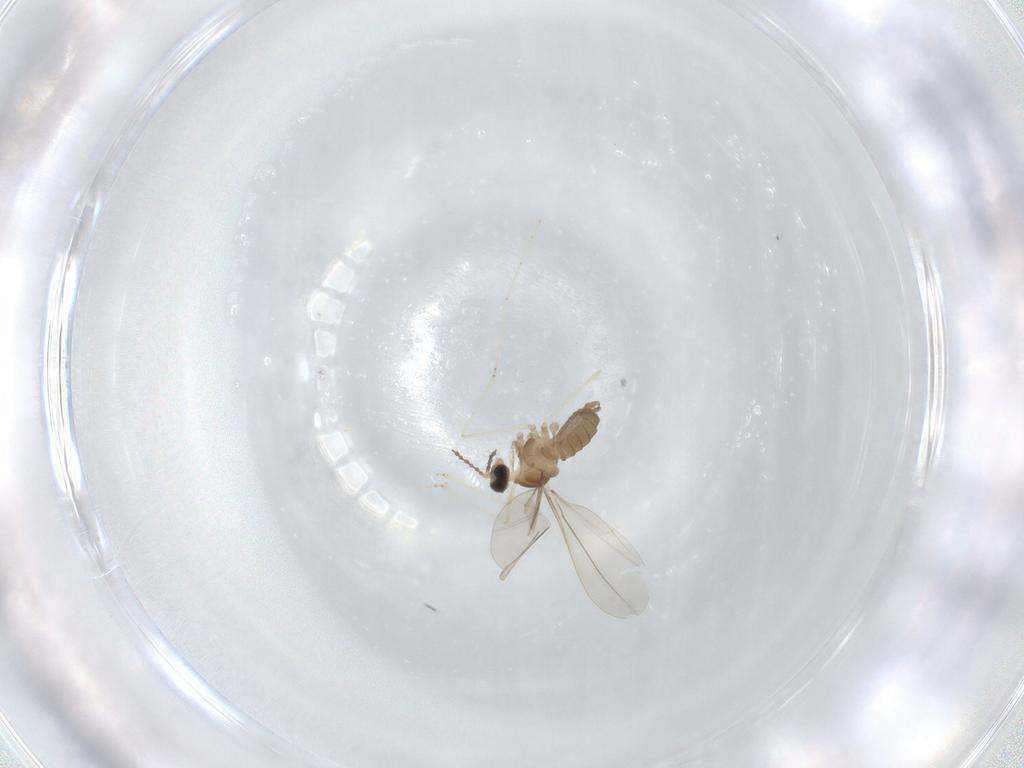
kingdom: Animalia
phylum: Arthropoda
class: Insecta
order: Diptera
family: Cecidomyiidae
